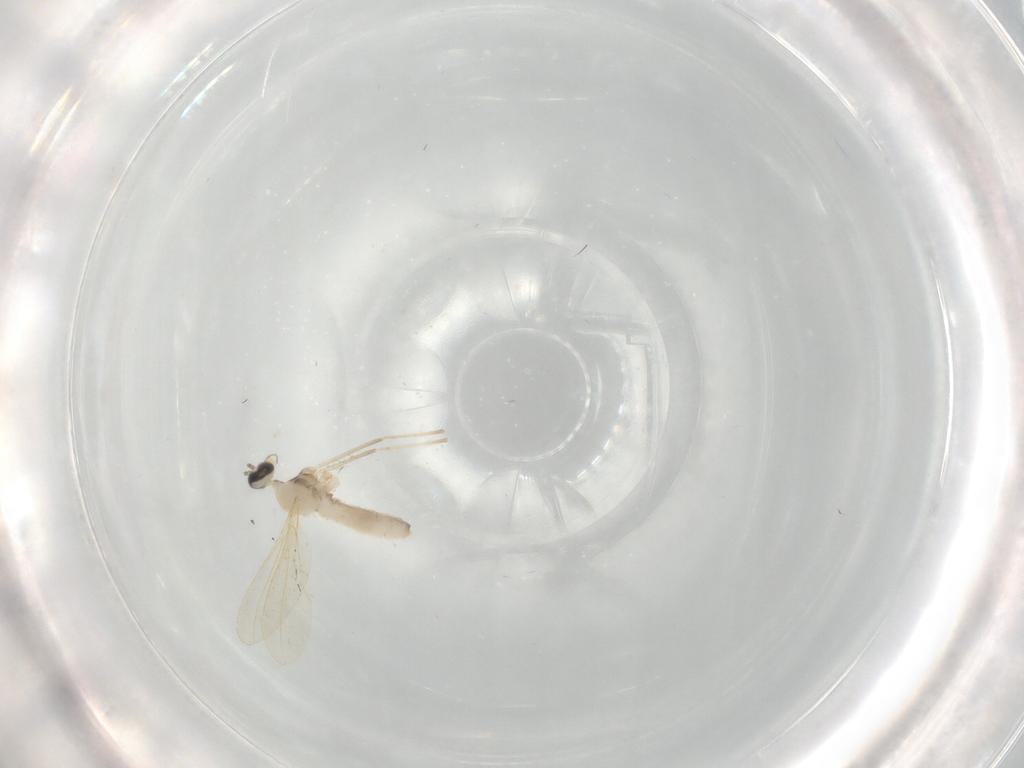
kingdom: Animalia
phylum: Arthropoda
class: Insecta
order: Diptera
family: Cecidomyiidae
